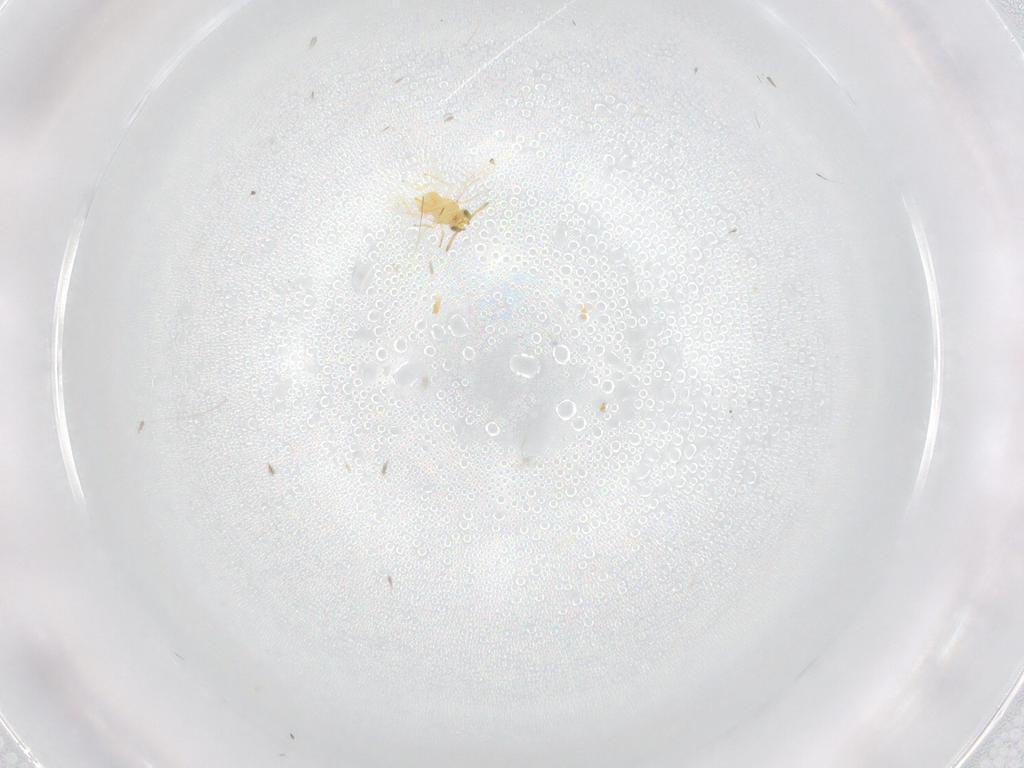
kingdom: Animalia
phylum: Arthropoda
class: Insecta
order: Hymenoptera
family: Aphelinidae
